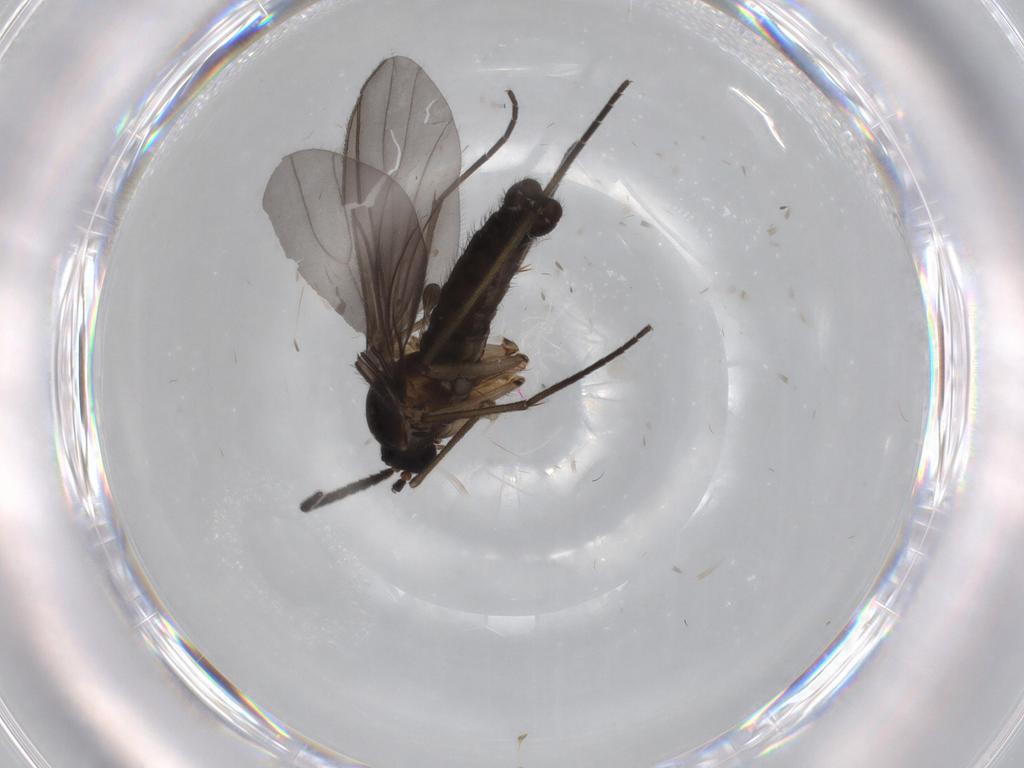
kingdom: Animalia
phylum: Arthropoda
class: Insecta
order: Diptera
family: Sciaridae
